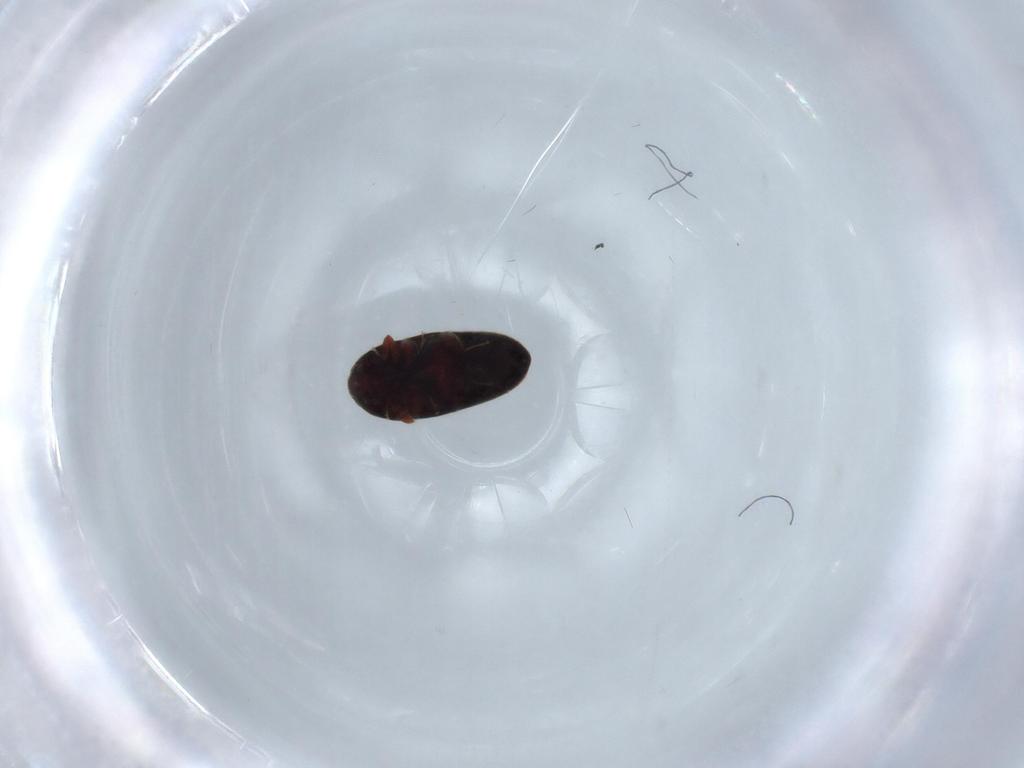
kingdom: Animalia
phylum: Arthropoda
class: Insecta
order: Coleoptera
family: Throscidae
